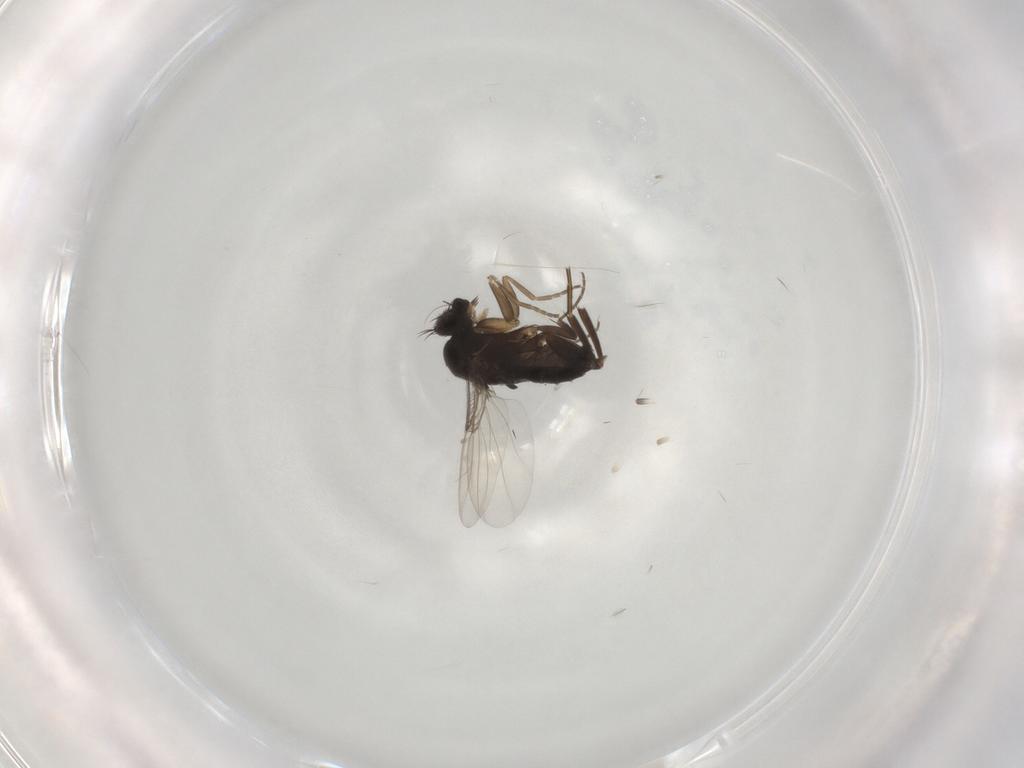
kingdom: Animalia
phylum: Arthropoda
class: Insecta
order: Diptera
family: Phoridae
